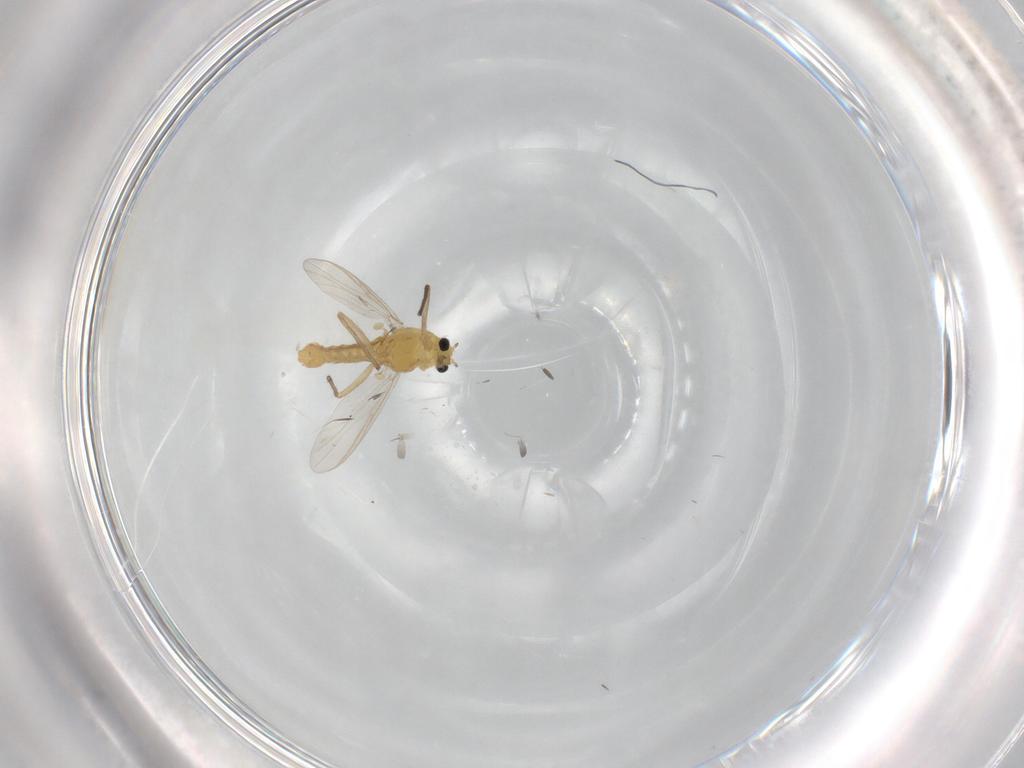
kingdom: Animalia
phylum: Arthropoda
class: Insecta
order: Diptera
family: Chironomidae
